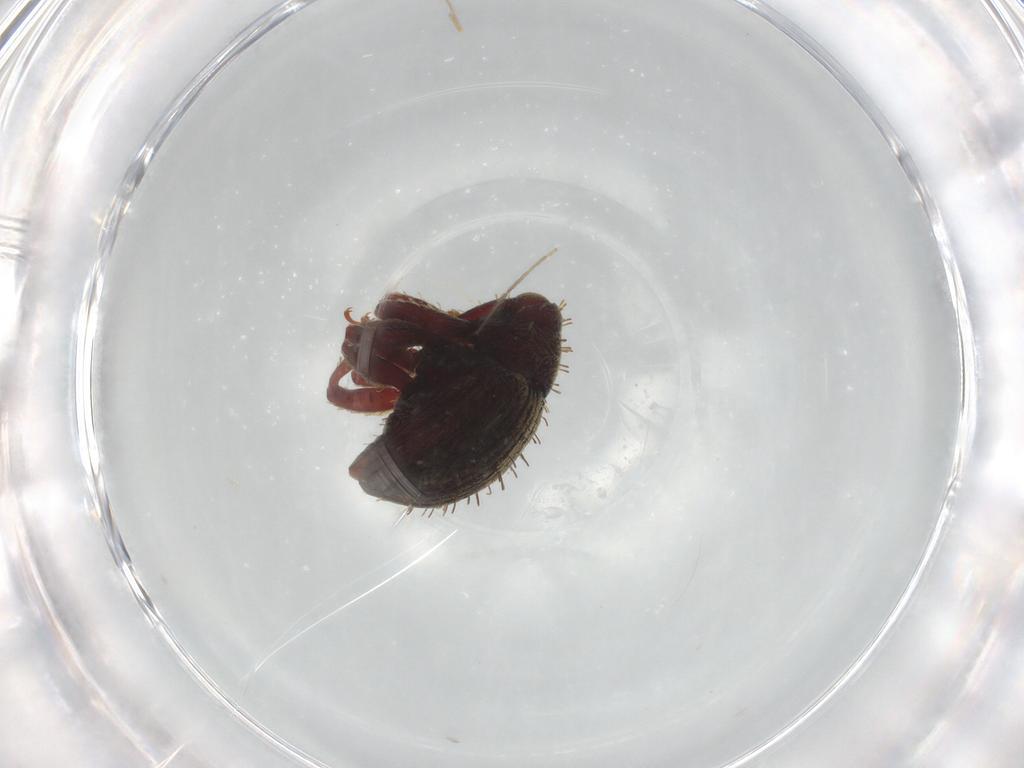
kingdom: Animalia
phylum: Arthropoda
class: Insecta
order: Coleoptera
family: Curculionidae
